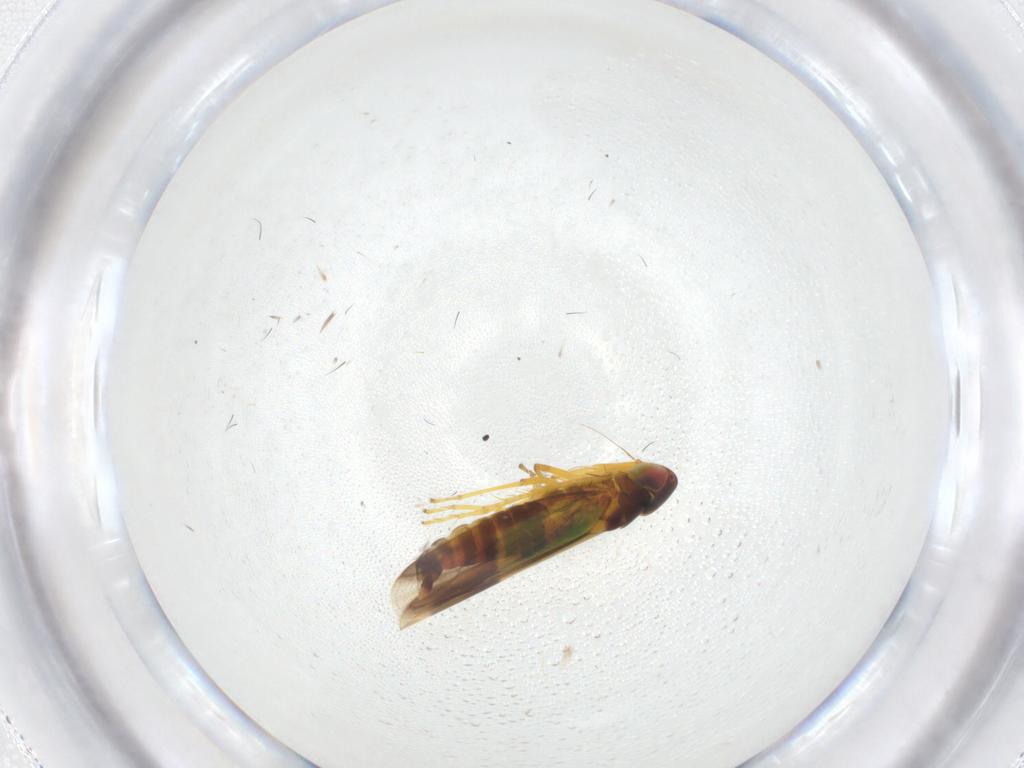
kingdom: Animalia
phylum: Arthropoda
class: Insecta
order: Hemiptera
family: Cicadellidae
